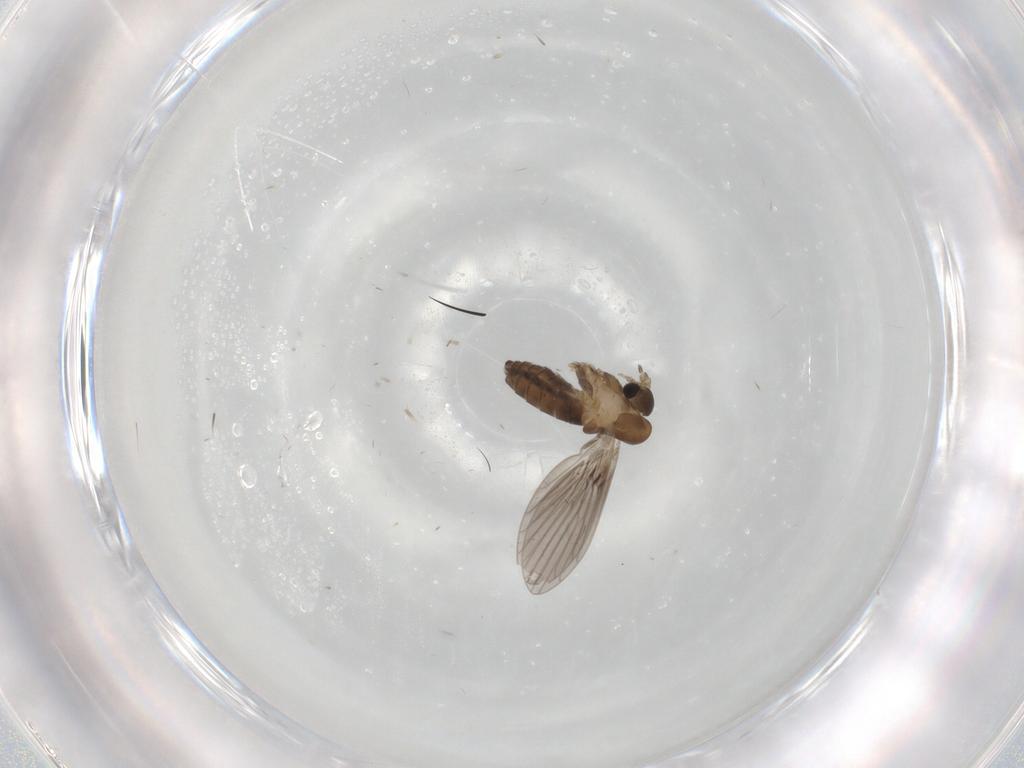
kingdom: Animalia
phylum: Arthropoda
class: Insecta
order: Diptera
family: Psychodidae
